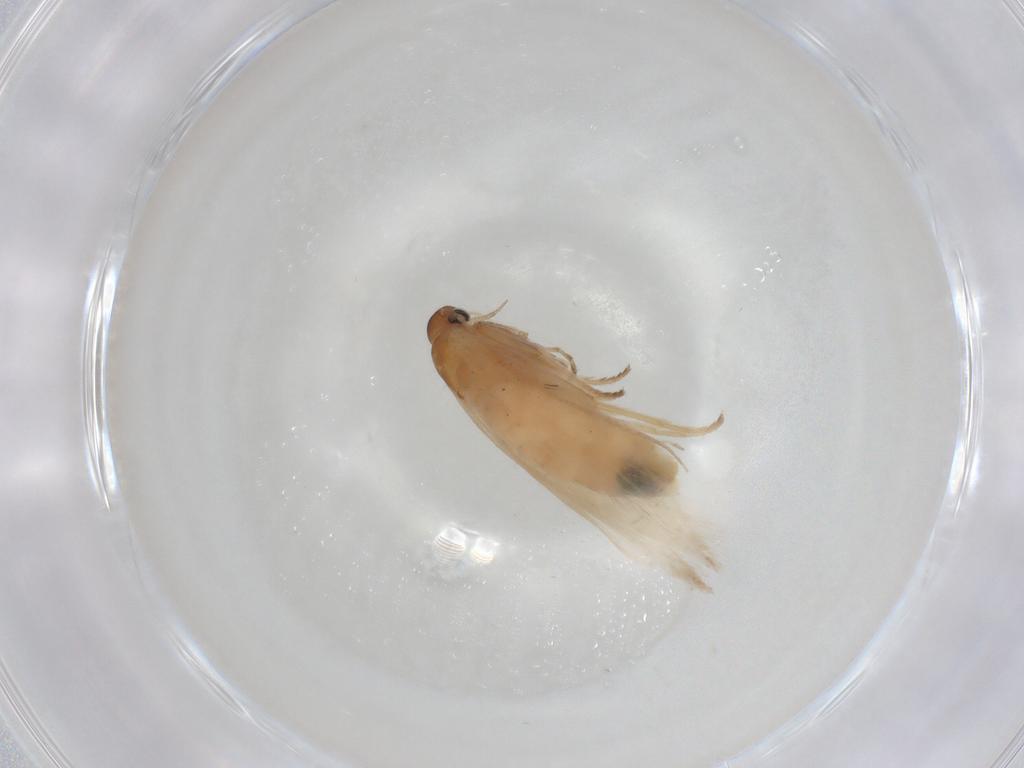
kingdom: Animalia
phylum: Arthropoda
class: Insecta
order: Lepidoptera
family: Gelechiidae
